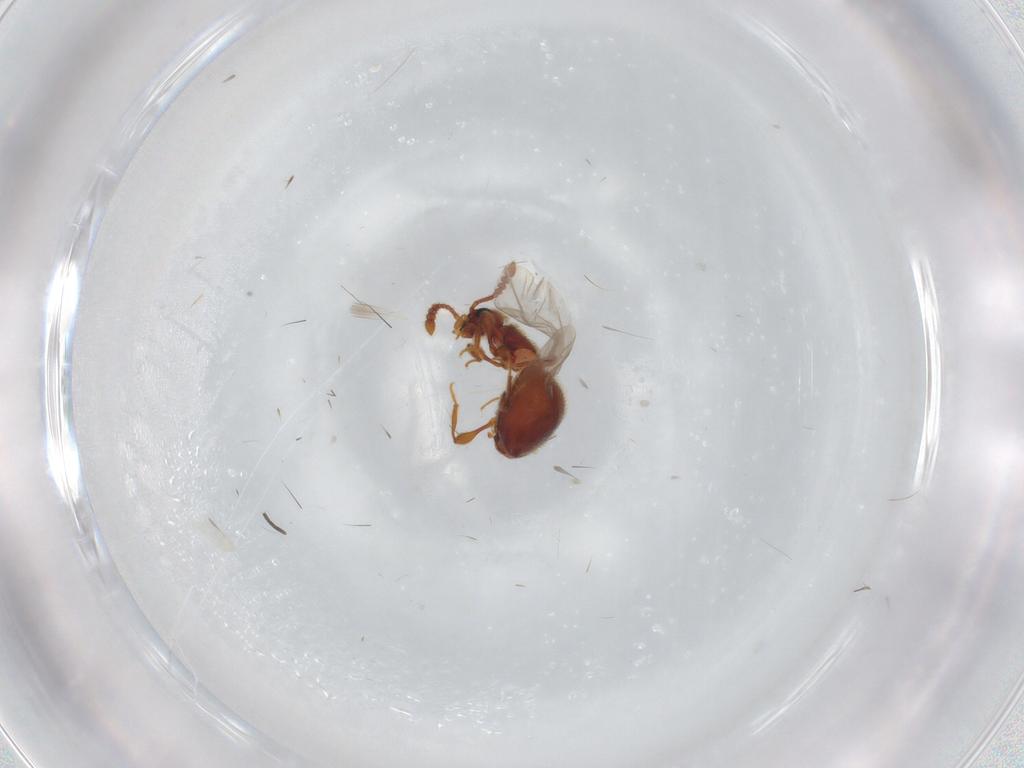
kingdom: Animalia
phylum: Arthropoda
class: Insecta
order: Coleoptera
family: Staphylinidae
